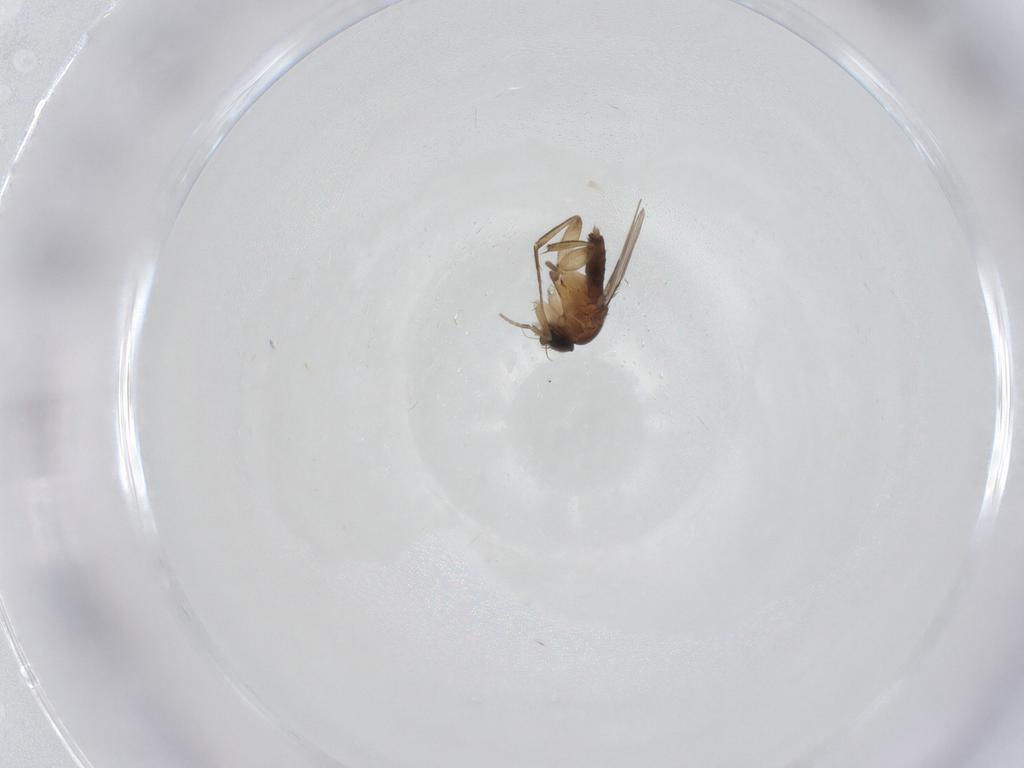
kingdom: Animalia
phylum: Arthropoda
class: Insecta
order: Diptera
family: Phoridae
